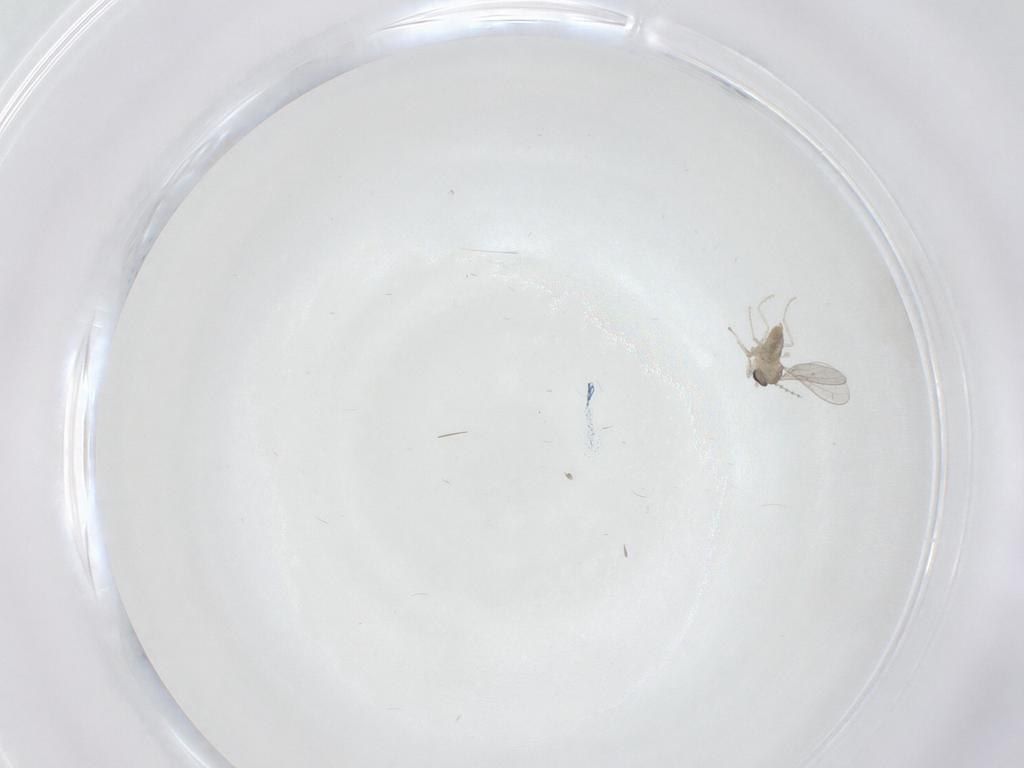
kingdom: Animalia
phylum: Arthropoda
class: Insecta
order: Diptera
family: Cecidomyiidae
